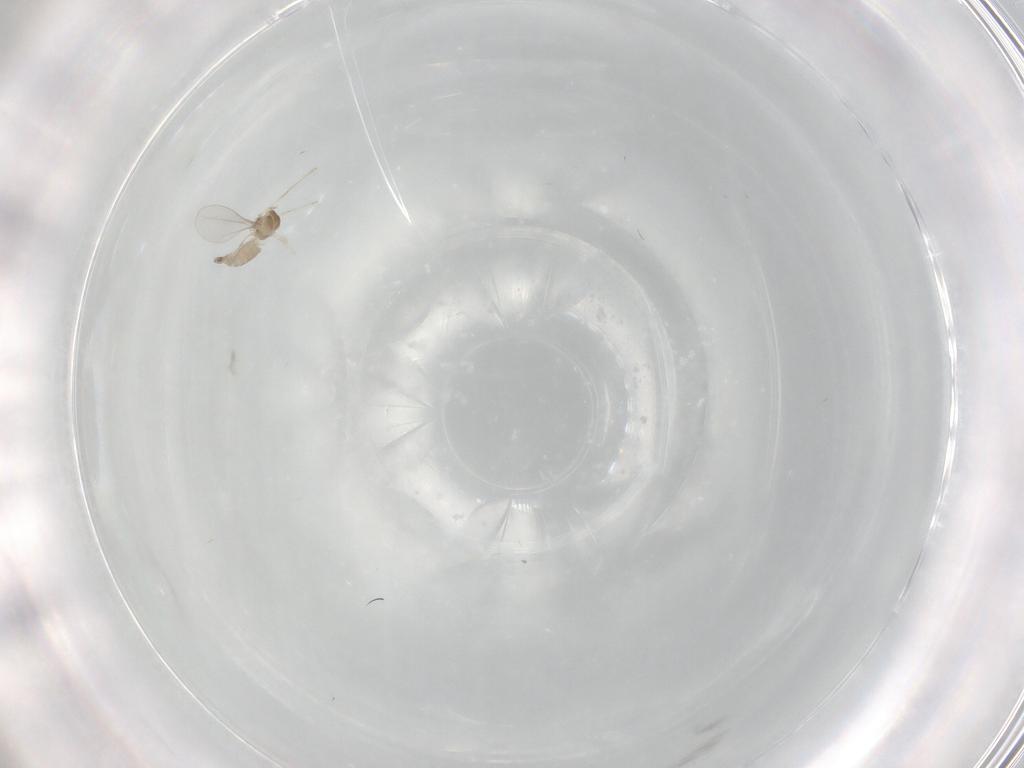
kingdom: Animalia
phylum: Arthropoda
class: Insecta
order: Diptera
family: Cecidomyiidae
